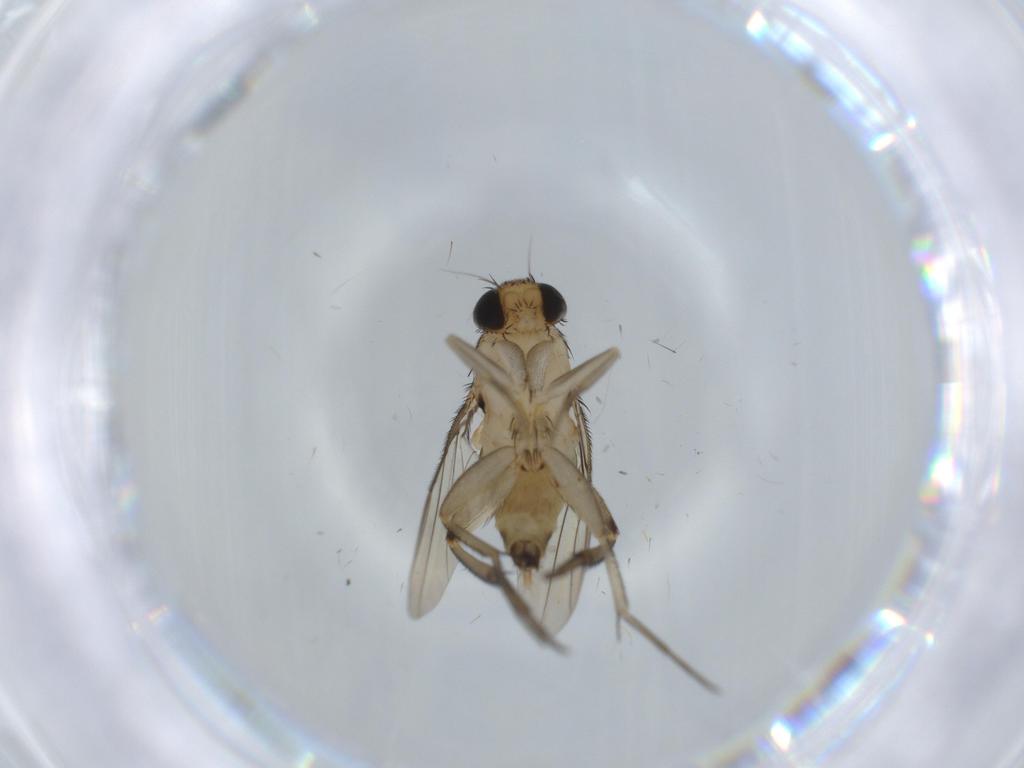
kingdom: Animalia
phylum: Arthropoda
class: Insecta
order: Diptera
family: Phoridae
